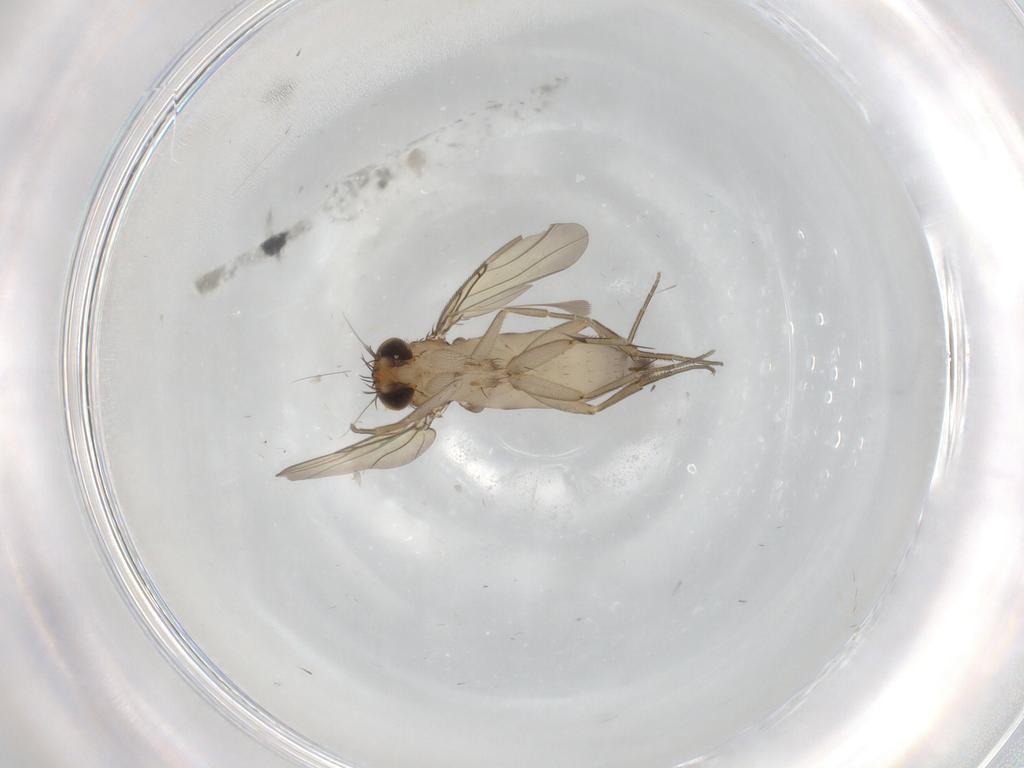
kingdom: Animalia
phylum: Arthropoda
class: Insecta
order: Diptera
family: Phoridae
